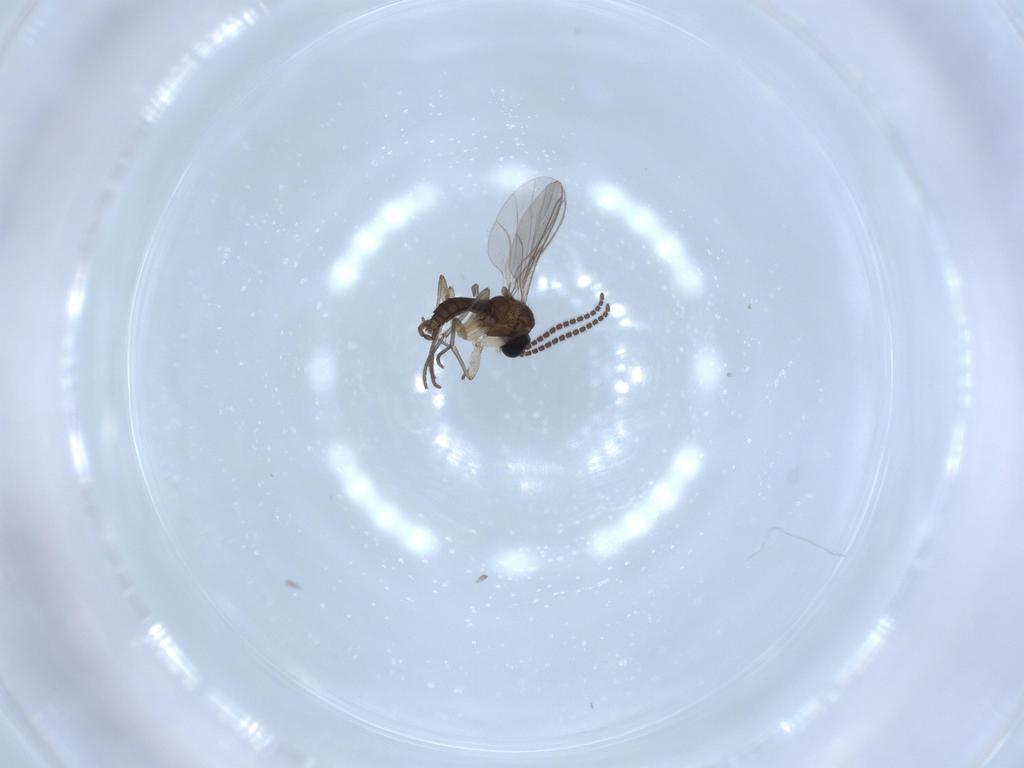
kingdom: Animalia
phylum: Arthropoda
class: Insecta
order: Diptera
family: Sciaridae
